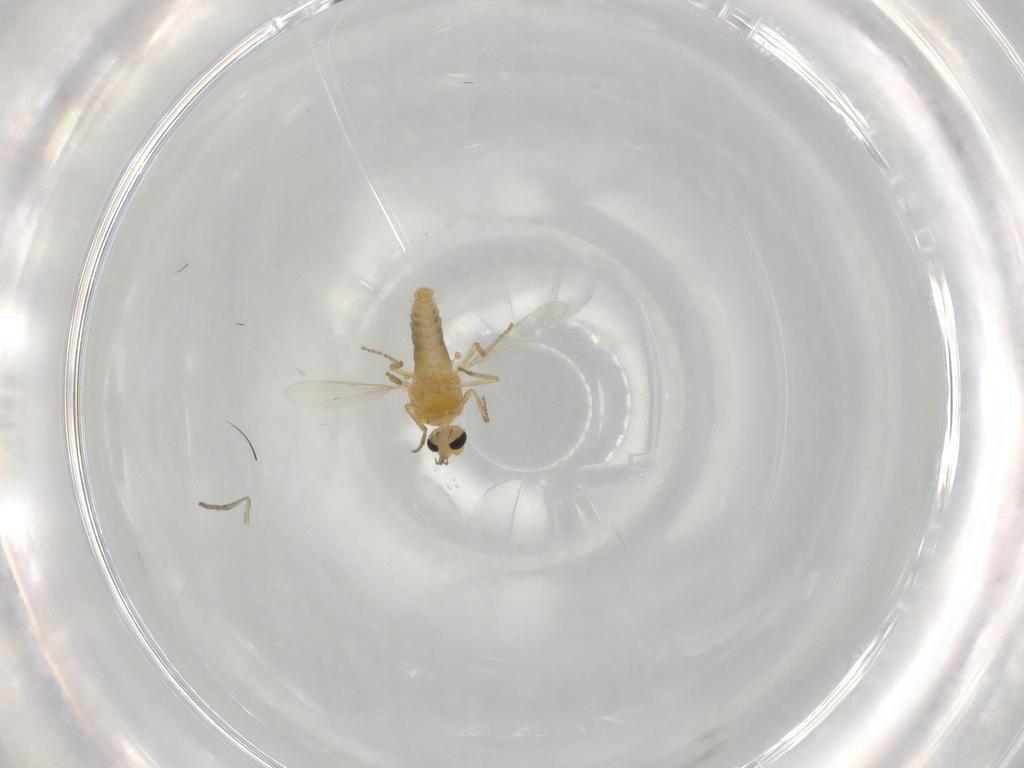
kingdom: Animalia
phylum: Arthropoda
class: Insecta
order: Diptera
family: Ceratopogonidae
